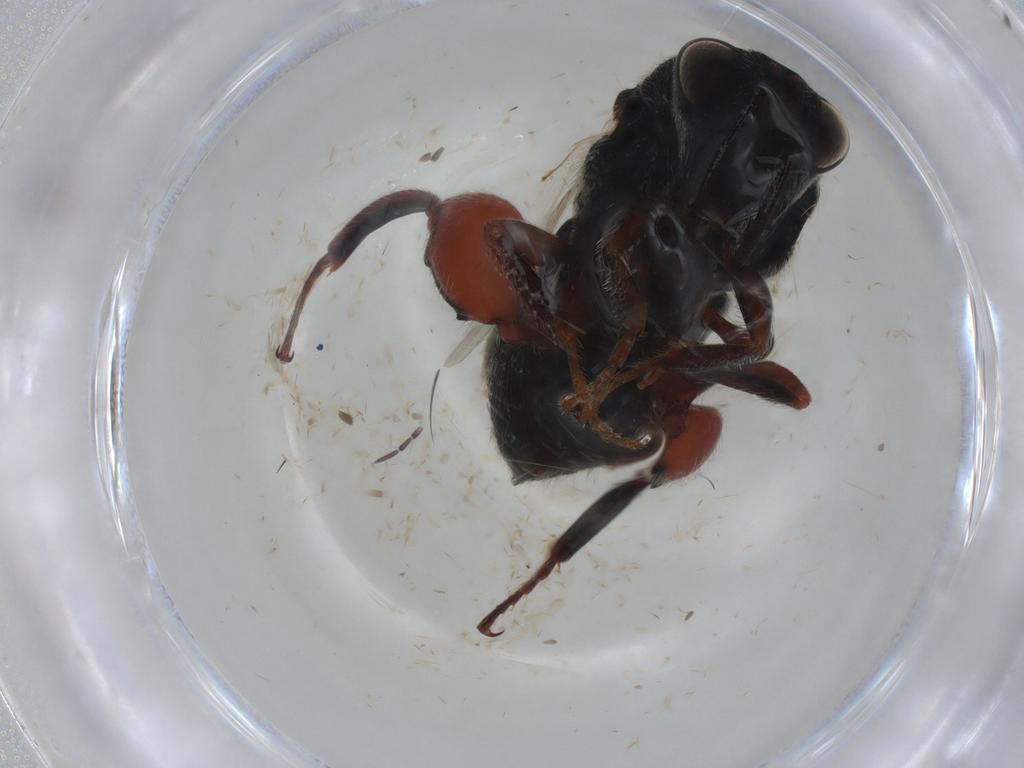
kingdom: Animalia
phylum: Arthropoda
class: Insecta
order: Hymenoptera
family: Chalcididae
